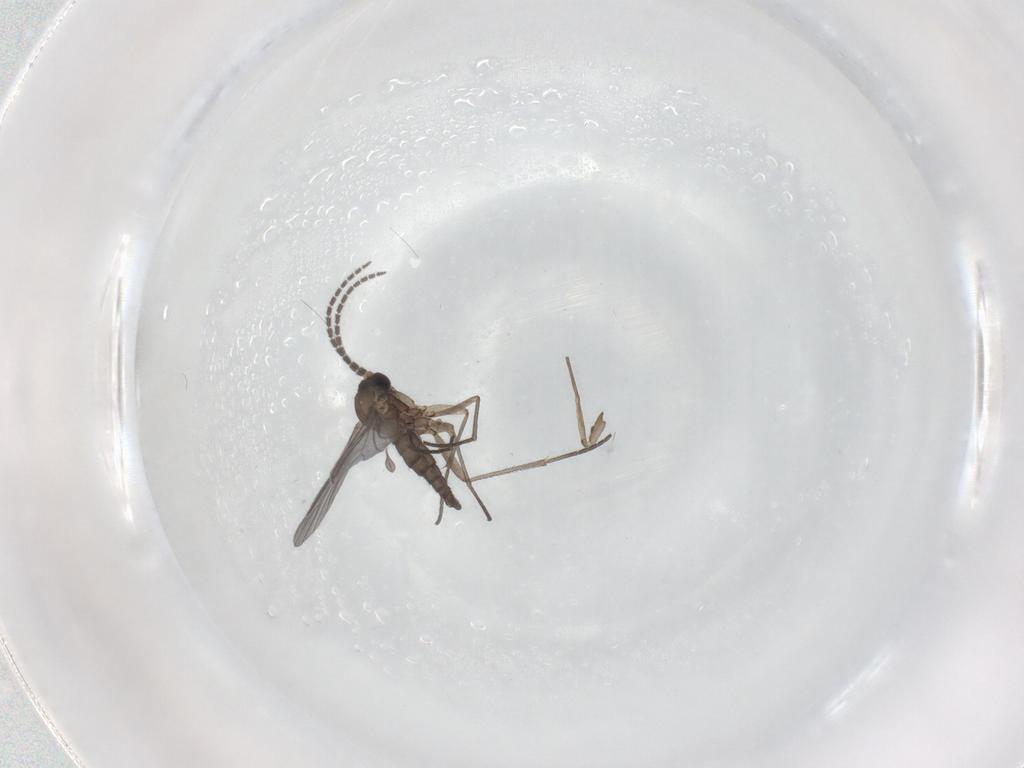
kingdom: Animalia
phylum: Arthropoda
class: Insecta
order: Diptera
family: Sciaridae
